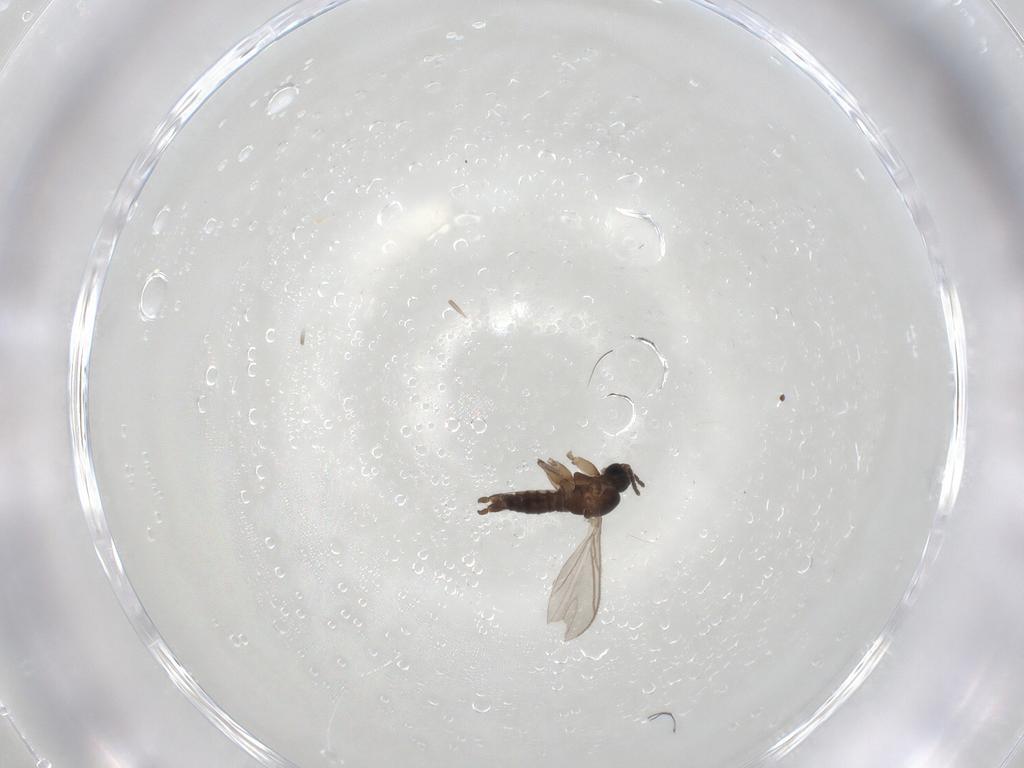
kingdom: Animalia
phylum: Arthropoda
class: Insecta
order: Diptera
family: Sciaridae
